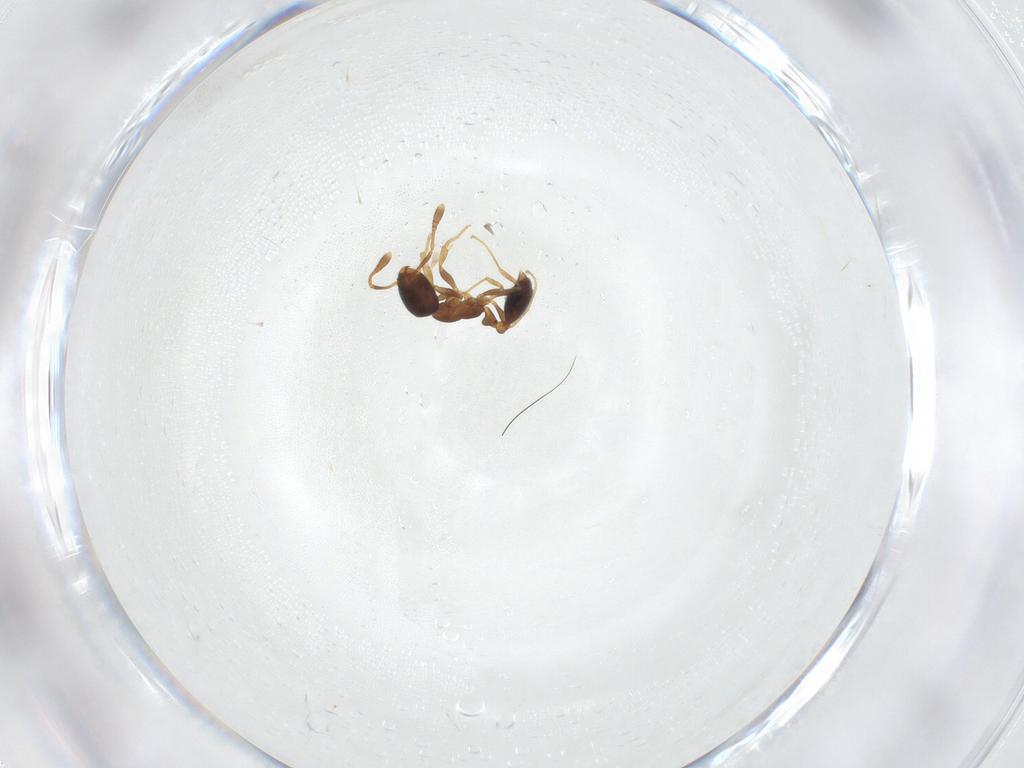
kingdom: Animalia
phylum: Arthropoda
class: Insecta
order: Hymenoptera
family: Formicidae
